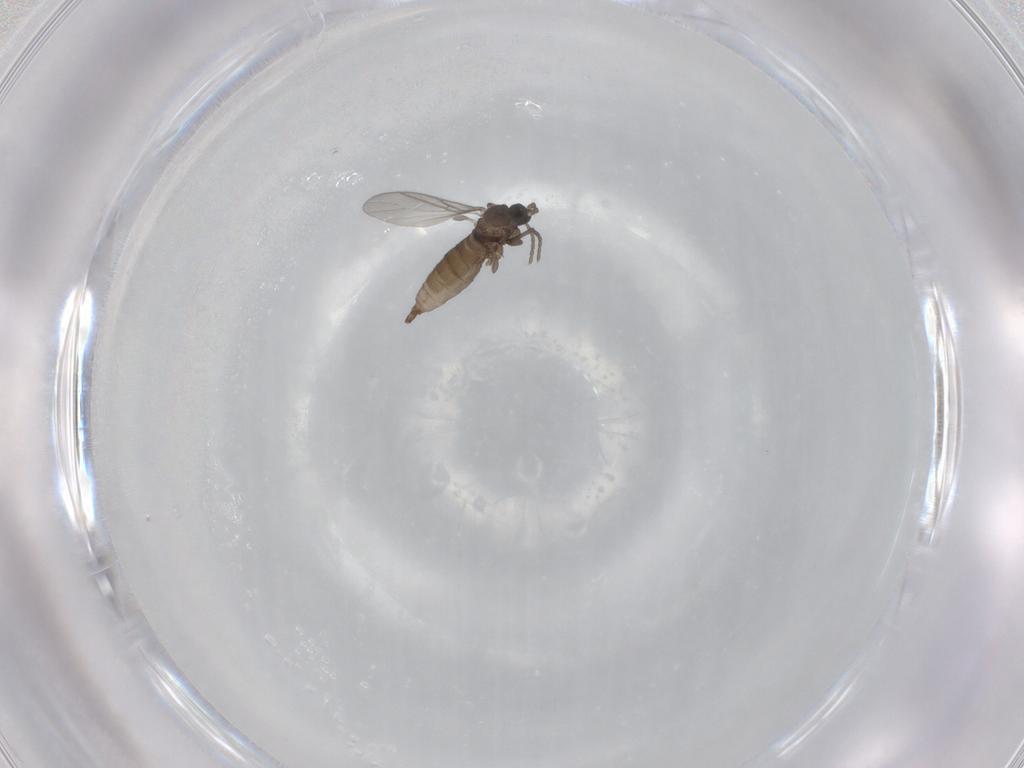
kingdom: Animalia
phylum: Arthropoda
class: Insecta
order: Diptera
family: Sciaridae
